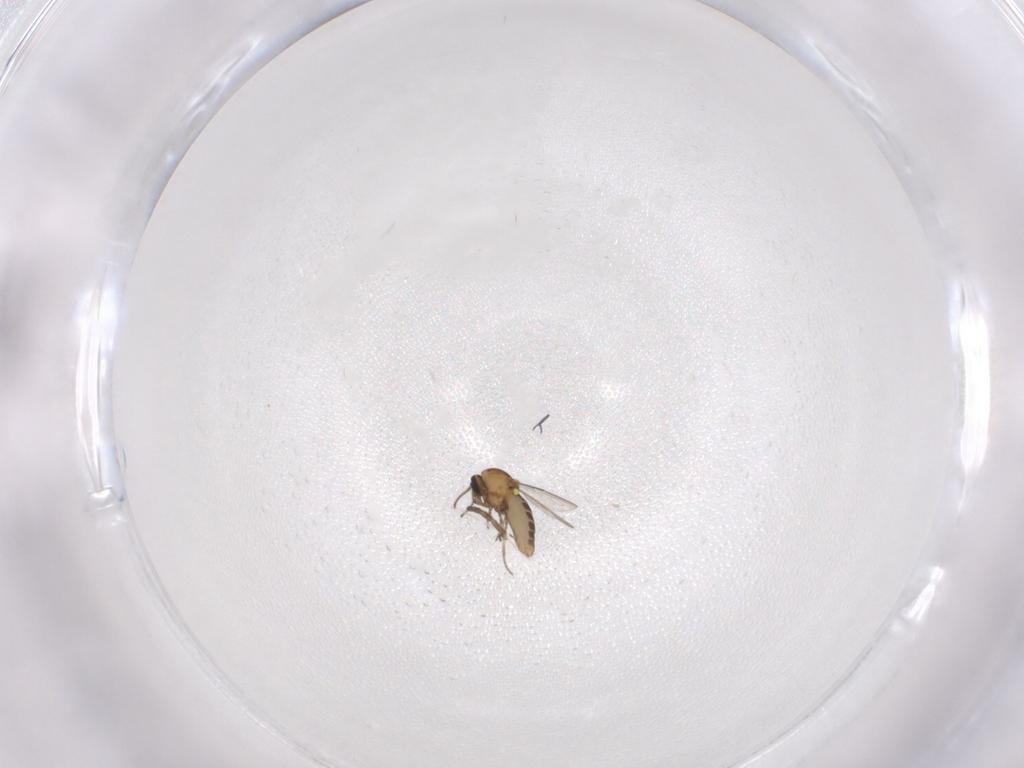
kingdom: Animalia
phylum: Arthropoda
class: Insecta
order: Diptera
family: Ceratopogonidae
